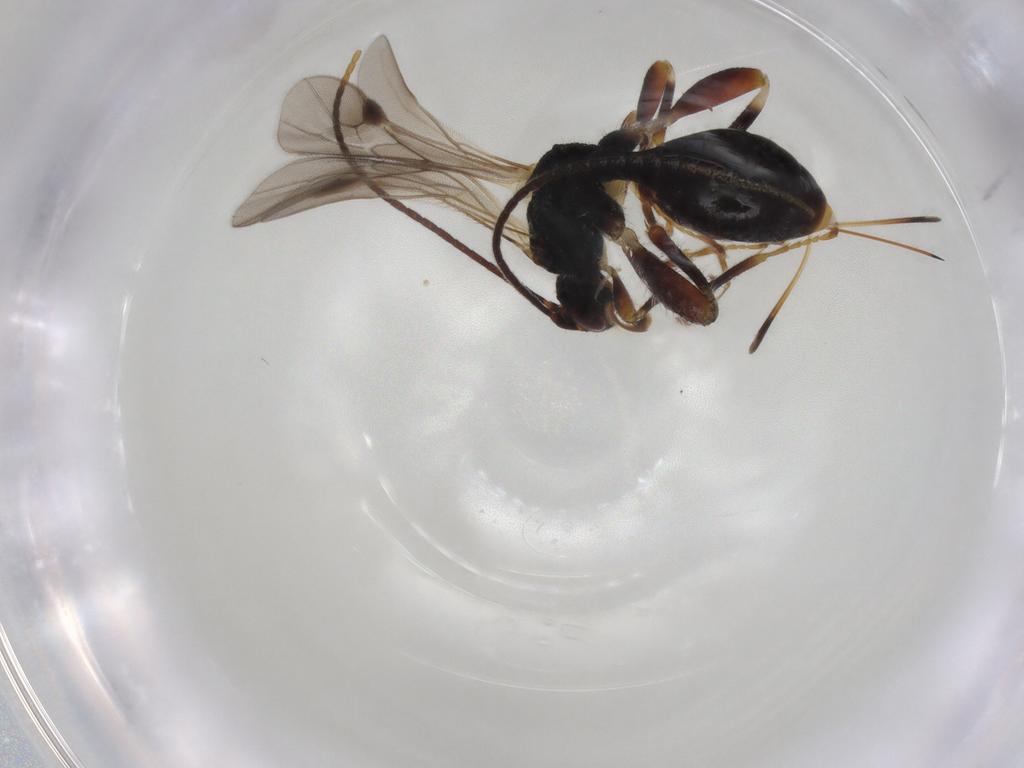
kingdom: Animalia
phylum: Arthropoda
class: Insecta
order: Hymenoptera
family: Braconidae
